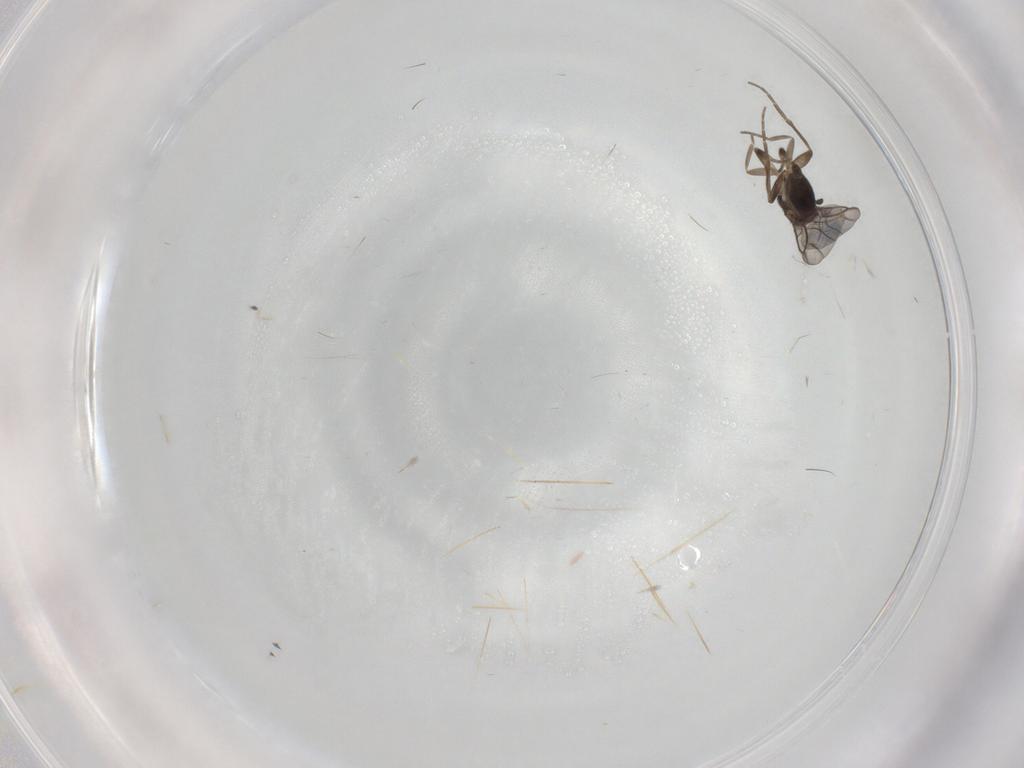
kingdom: Animalia
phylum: Arthropoda
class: Insecta
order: Diptera
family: Phoridae
